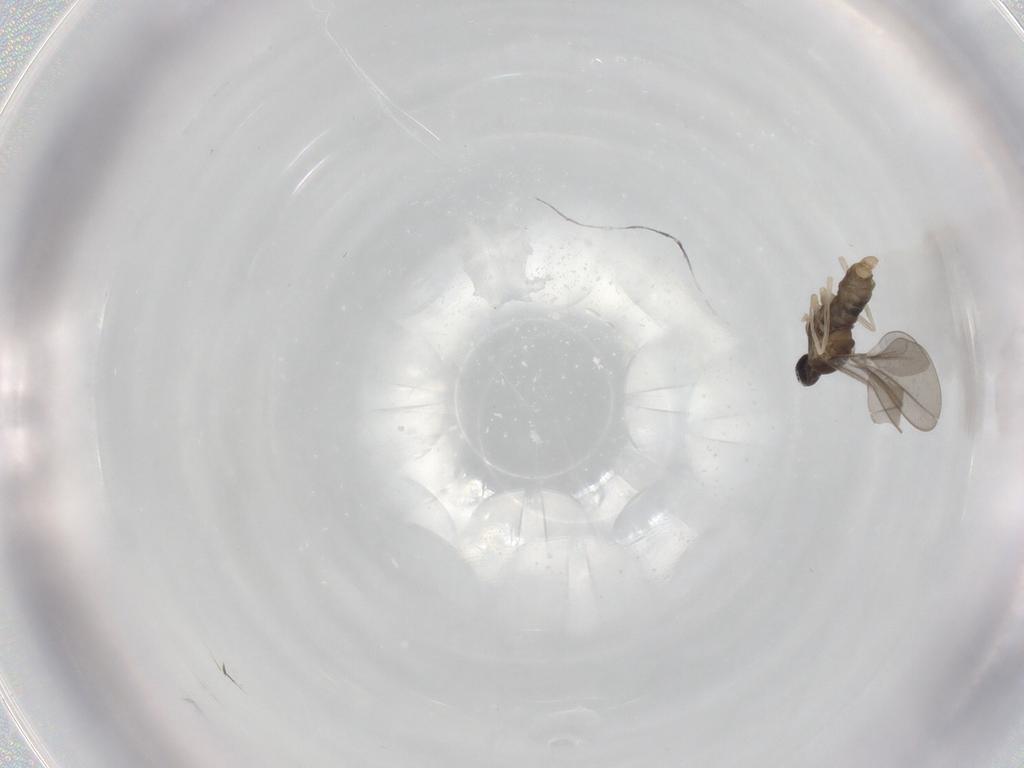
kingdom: Animalia
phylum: Arthropoda
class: Insecta
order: Diptera
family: Cecidomyiidae
